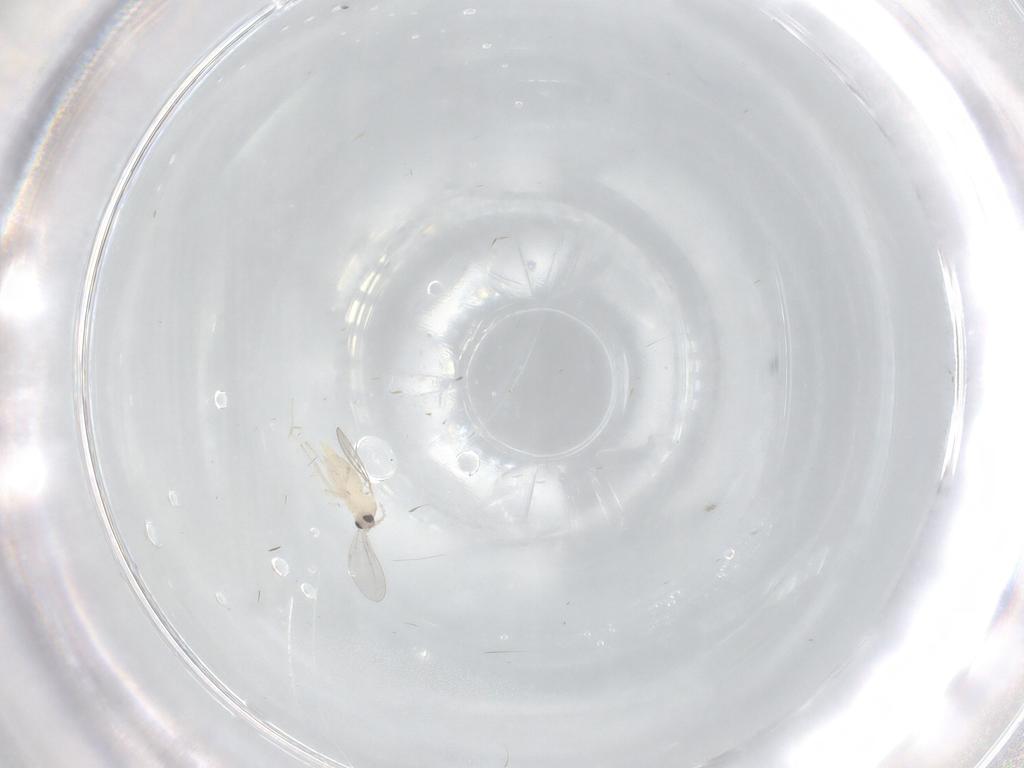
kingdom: Animalia
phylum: Arthropoda
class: Insecta
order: Diptera
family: Cecidomyiidae
